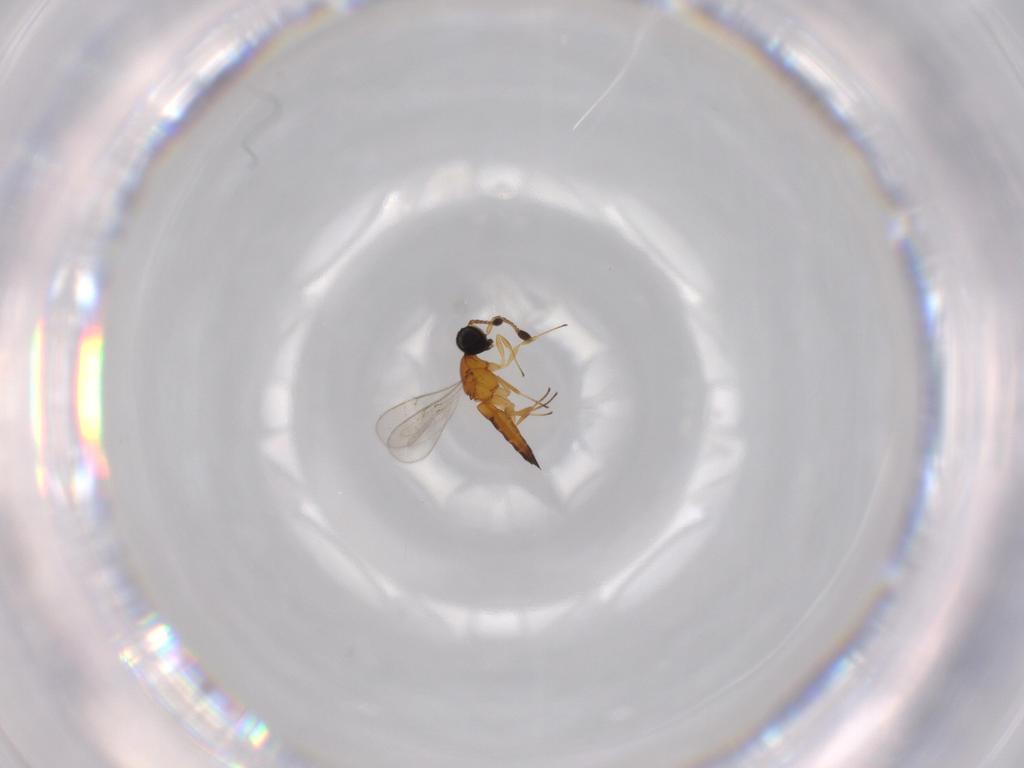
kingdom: Animalia
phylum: Arthropoda
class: Insecta
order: Hymenoptera
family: Scelionidae
